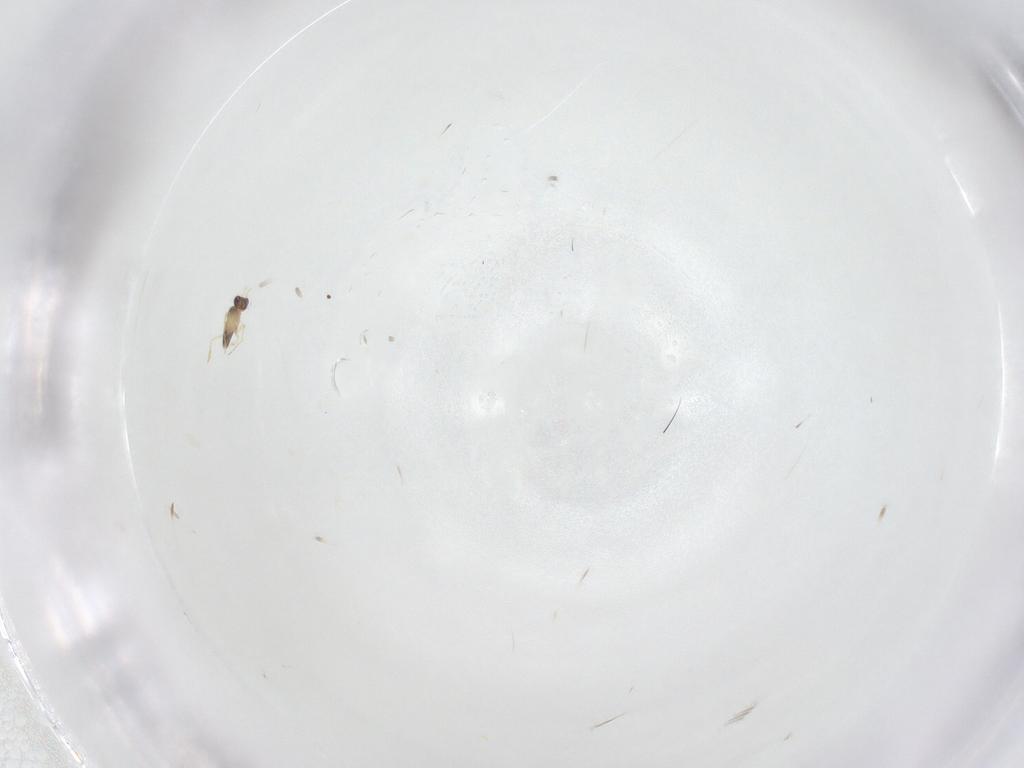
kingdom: Animalia
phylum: Arthropoda
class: Insecta
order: Hymenoptera
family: Mymaridae
